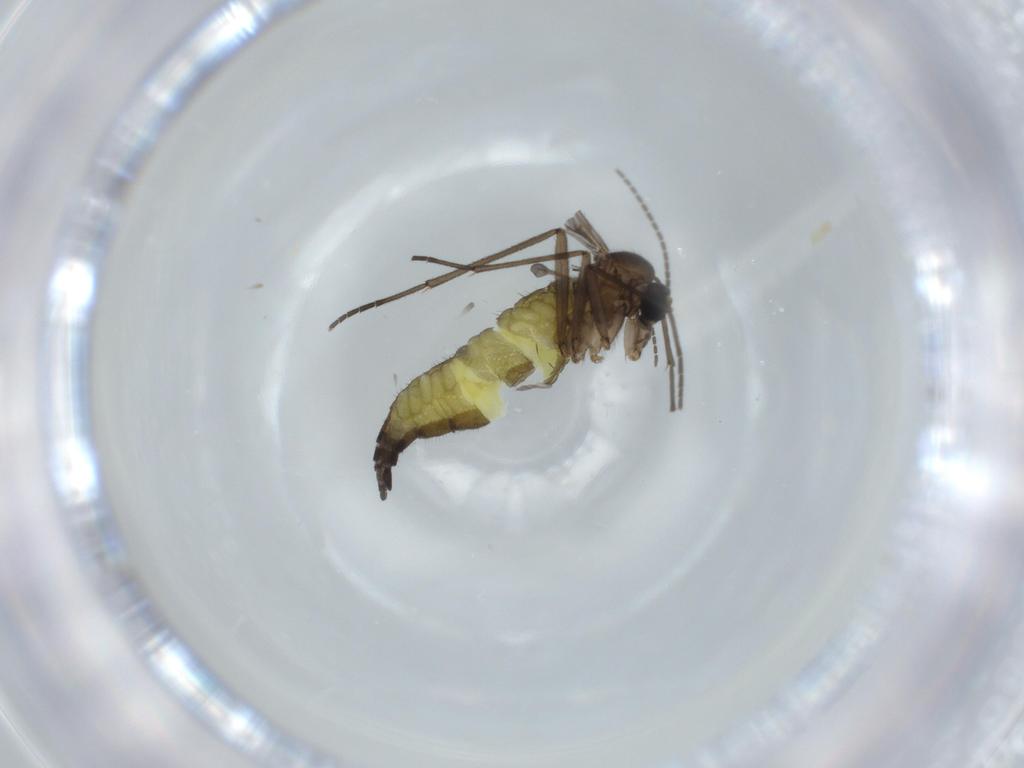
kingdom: Animalia
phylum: Arthropoda
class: Insecta
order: Diptera
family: Sciaridae
